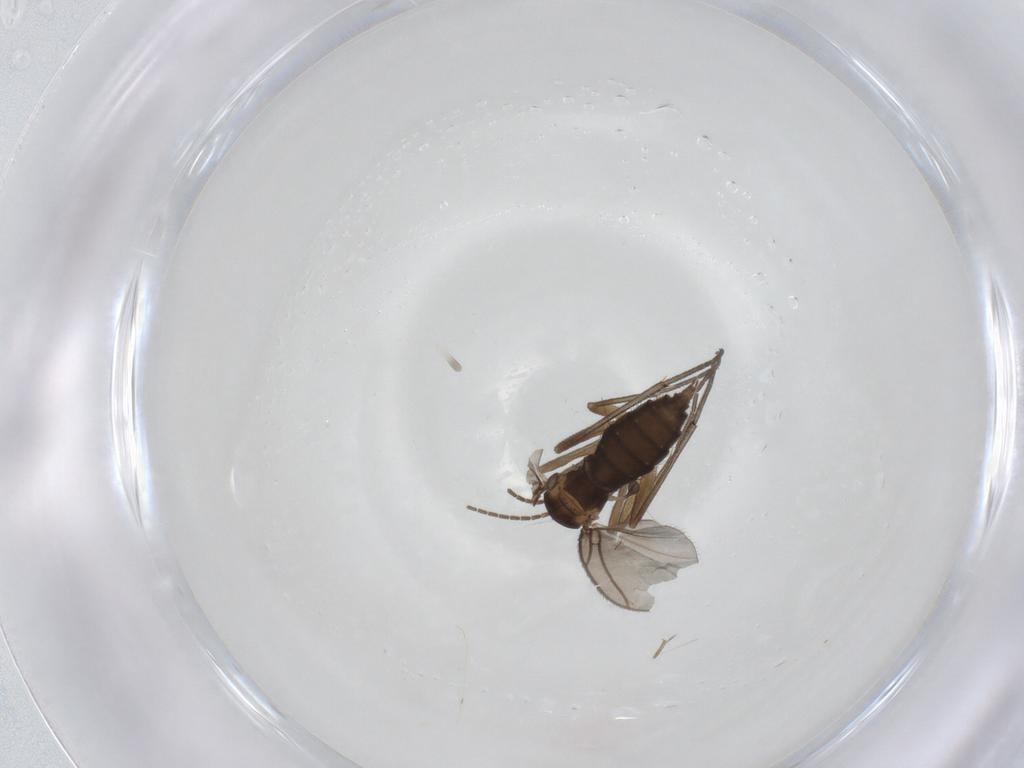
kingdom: Animalia
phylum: Arthropoda
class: Insecta
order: Diptera
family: Phoridae
